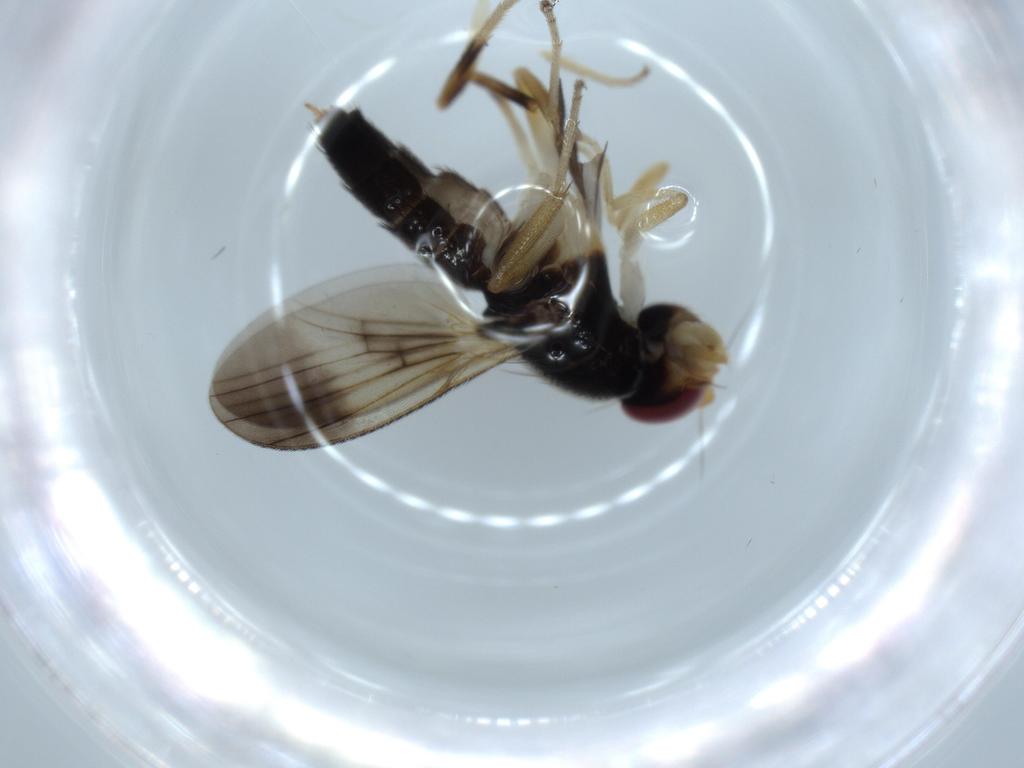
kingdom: Animalia
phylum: Arthropoda
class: Insecta
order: Diptera
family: Clusiidae
